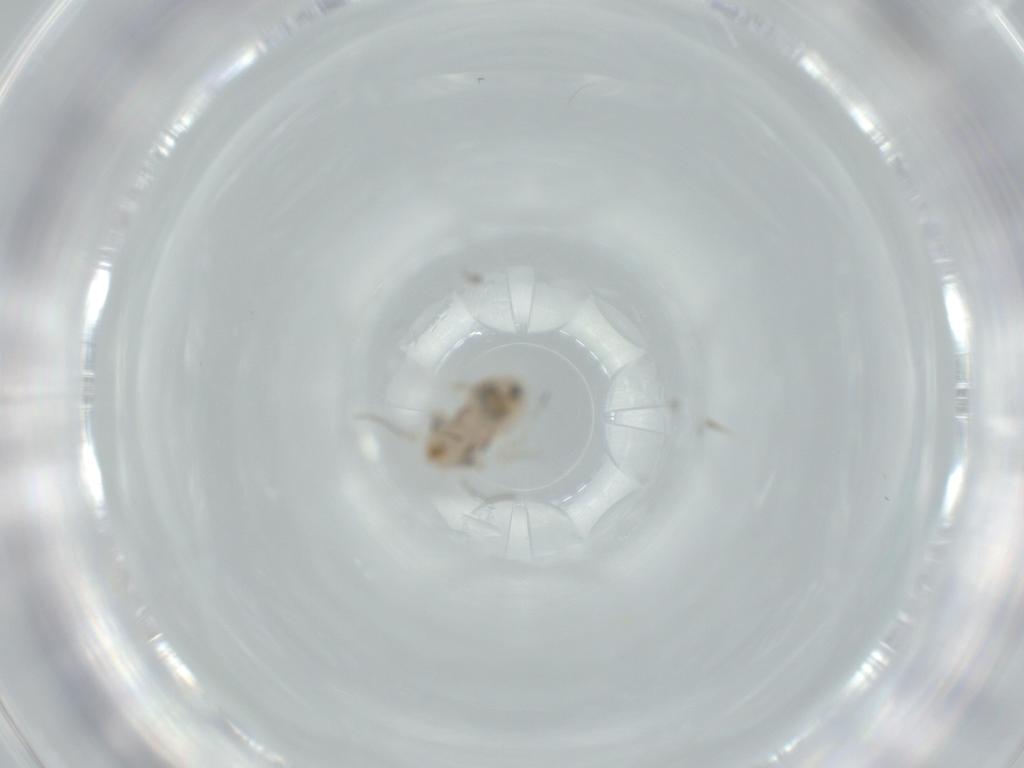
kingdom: Animalia
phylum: Arthropoda
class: Insecta
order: Psocodea
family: Psocidae
